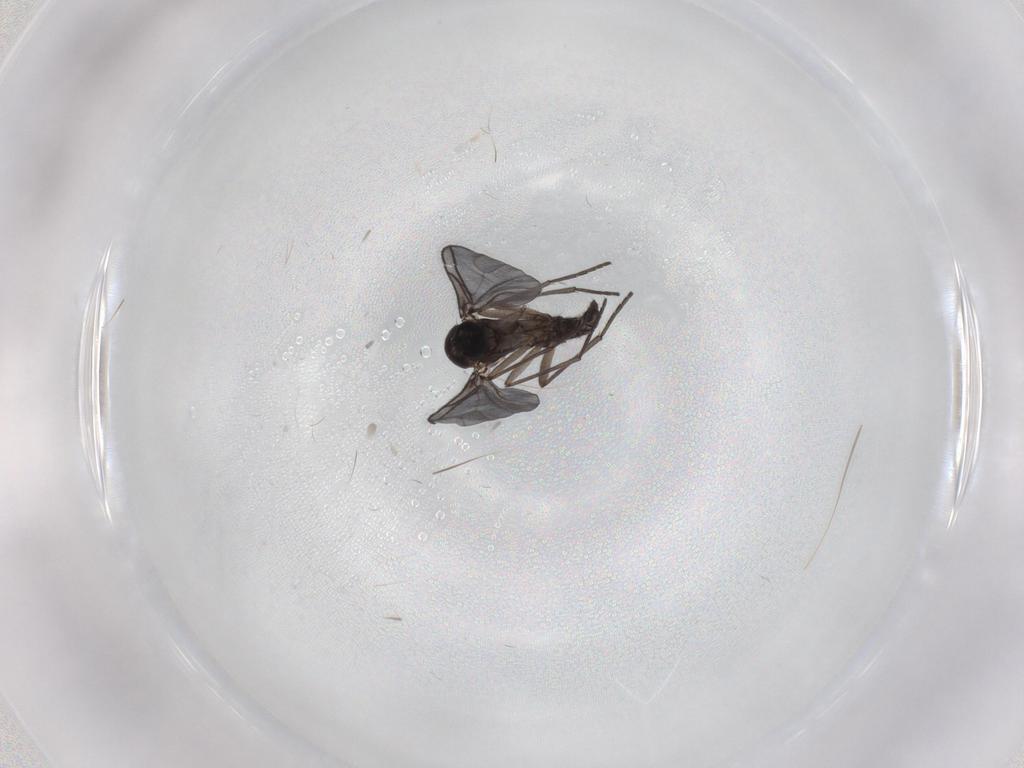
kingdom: Animalia
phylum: Arthropoda
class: Insecta
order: Diptera
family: Sciaridae
